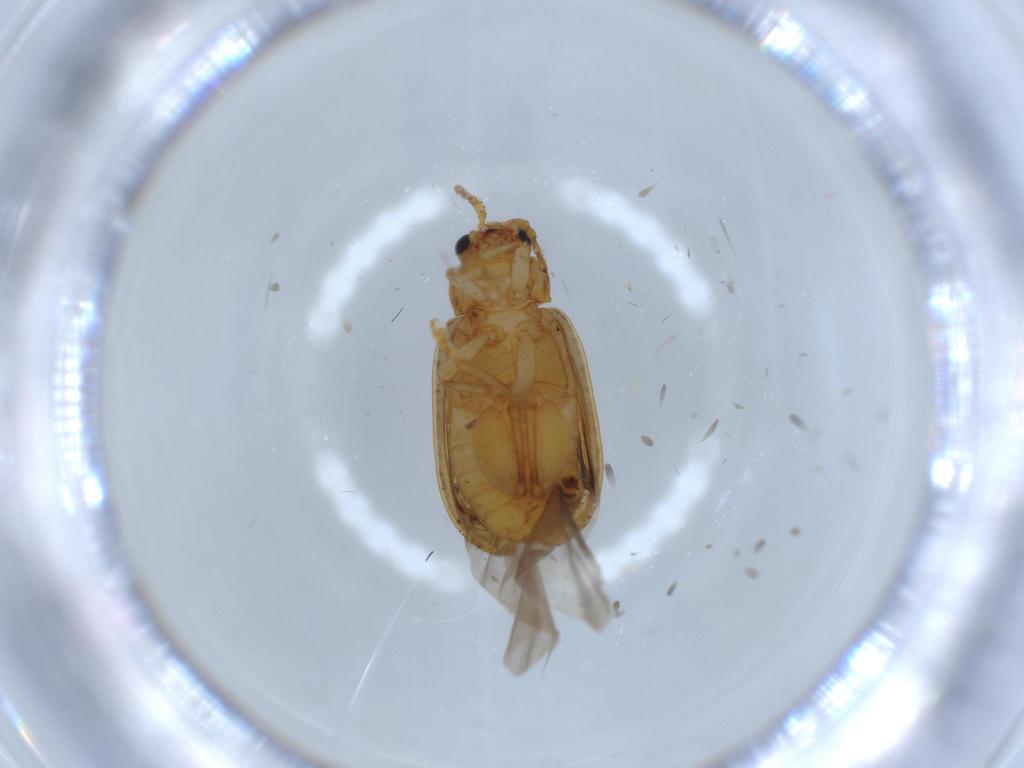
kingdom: Animalia
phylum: Arthropoda
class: Insecta
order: Coleoptera
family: Chrysomelidae
